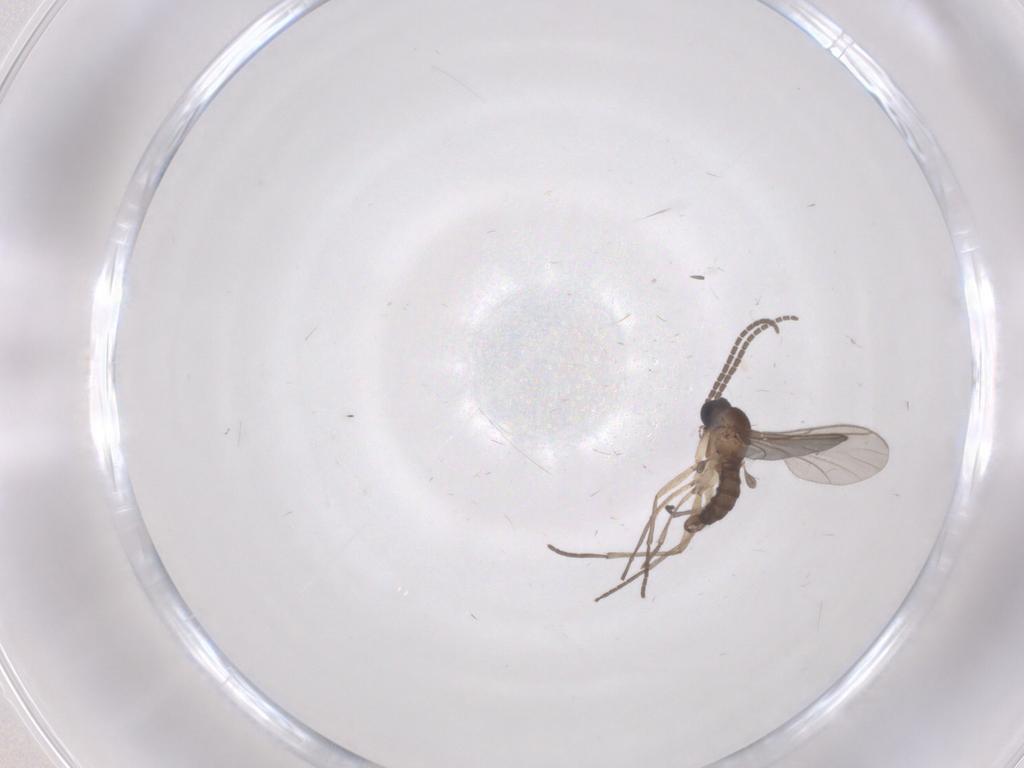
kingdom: Animalia
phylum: Arthropoda
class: Insecta
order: Diptera
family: Sciaridae
